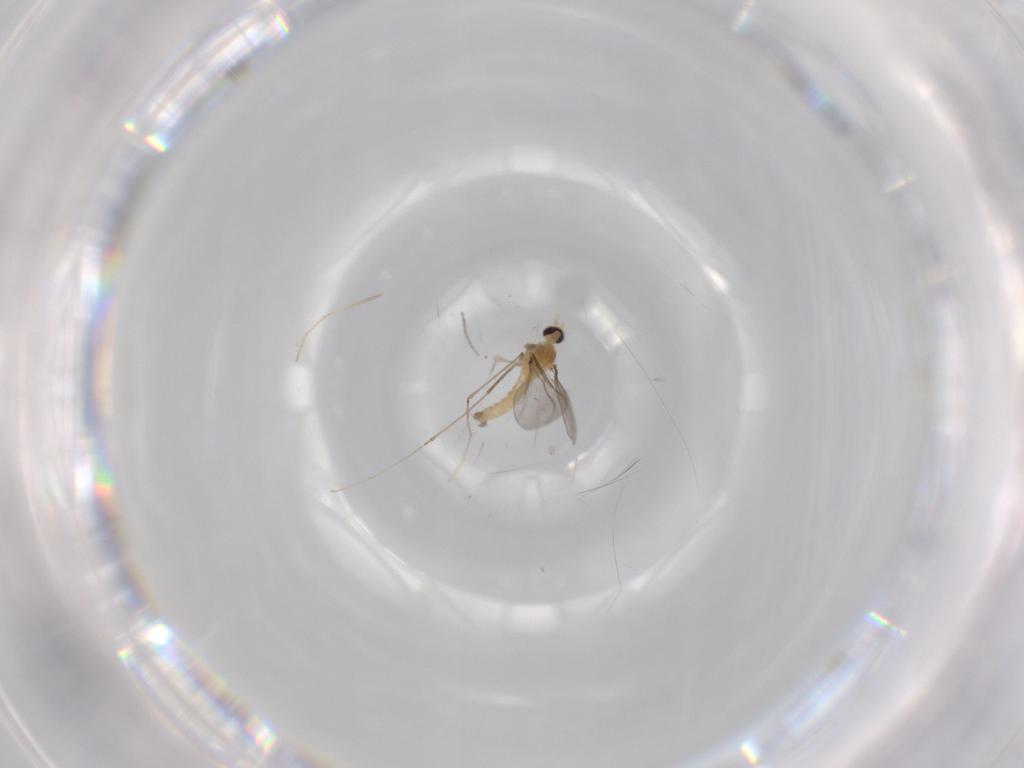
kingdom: Animalia
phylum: Arthropoda
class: Insecta
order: Diptera
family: Cecidomyiidae
